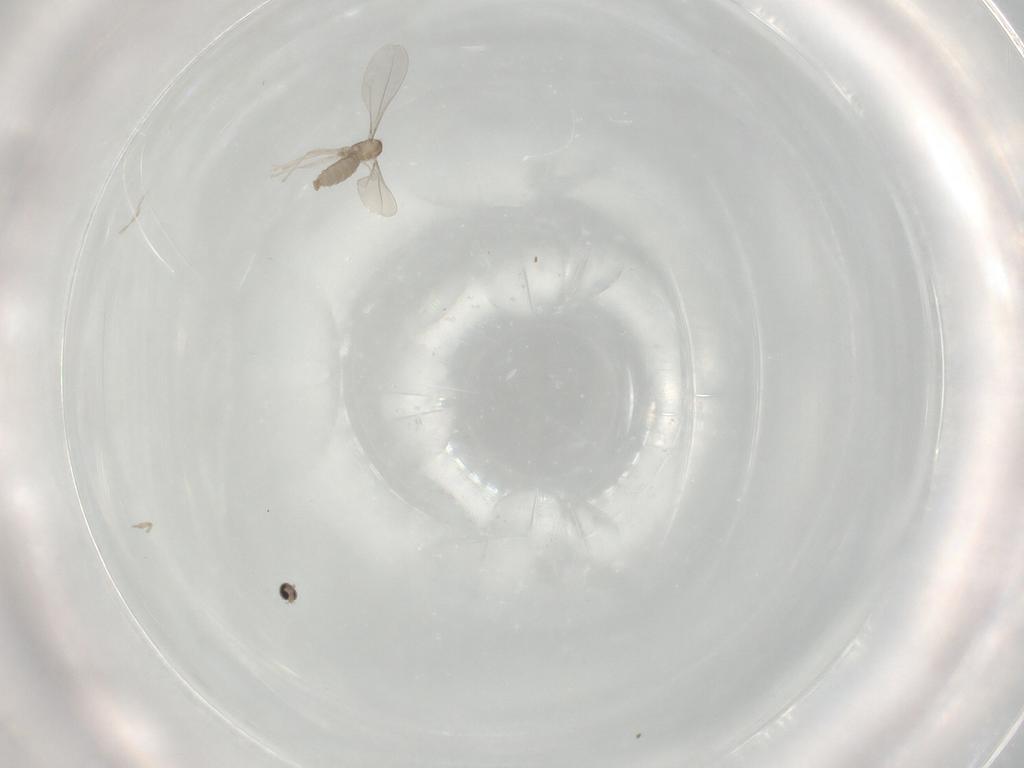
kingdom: Animalia
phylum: Arthropoda
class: Insecta
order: Diptera
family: Cecidomyiidae
